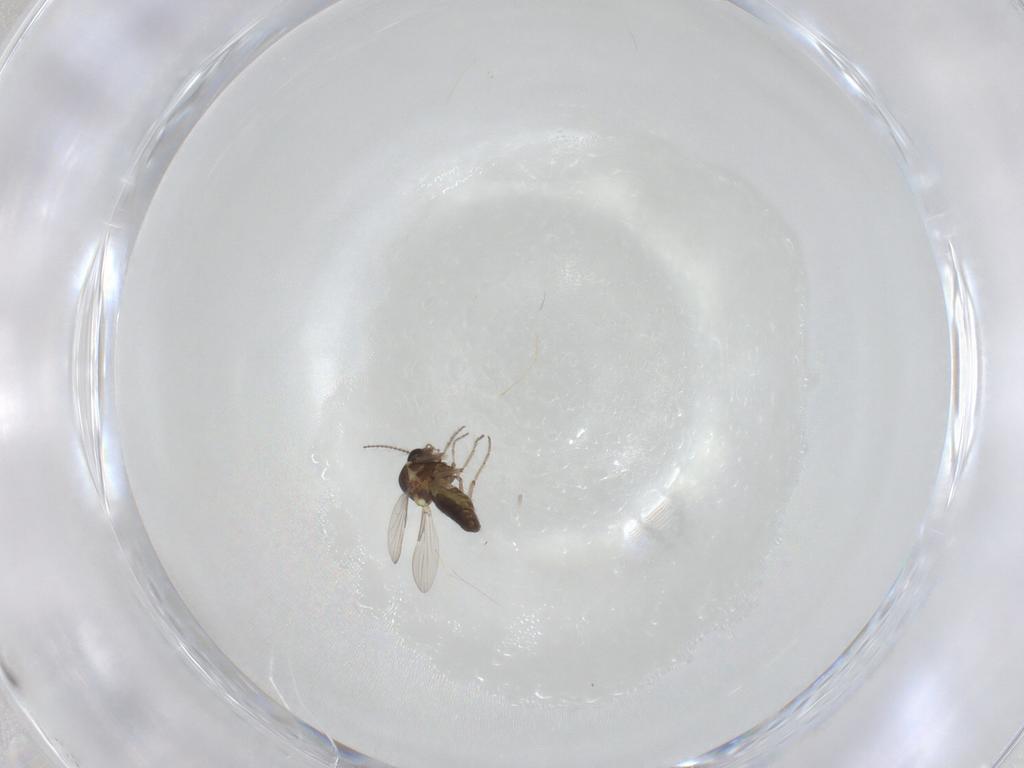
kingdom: Animalia
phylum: Arthropoda
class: Insecta
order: Diptera
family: Ceratopogonidae
